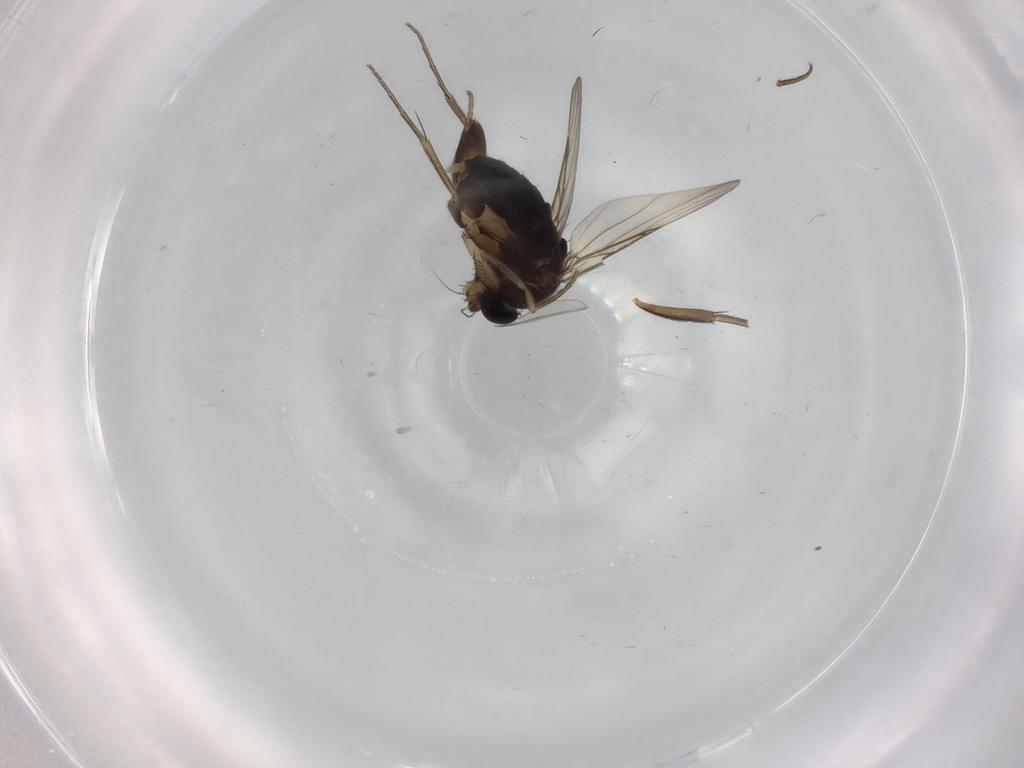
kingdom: Animalia
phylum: Arthropoda
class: Insecta
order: Diptera
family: Phoridae
